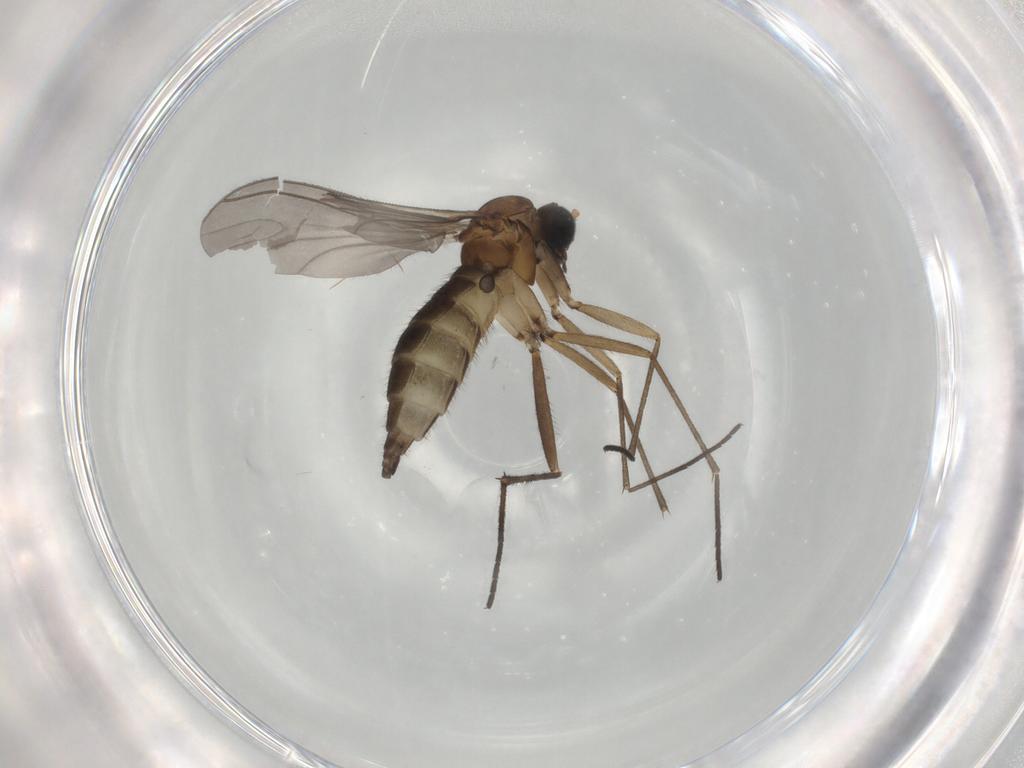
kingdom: Animalia
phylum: Arthropoda
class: Insecta
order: Diptera
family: Sciaridae
